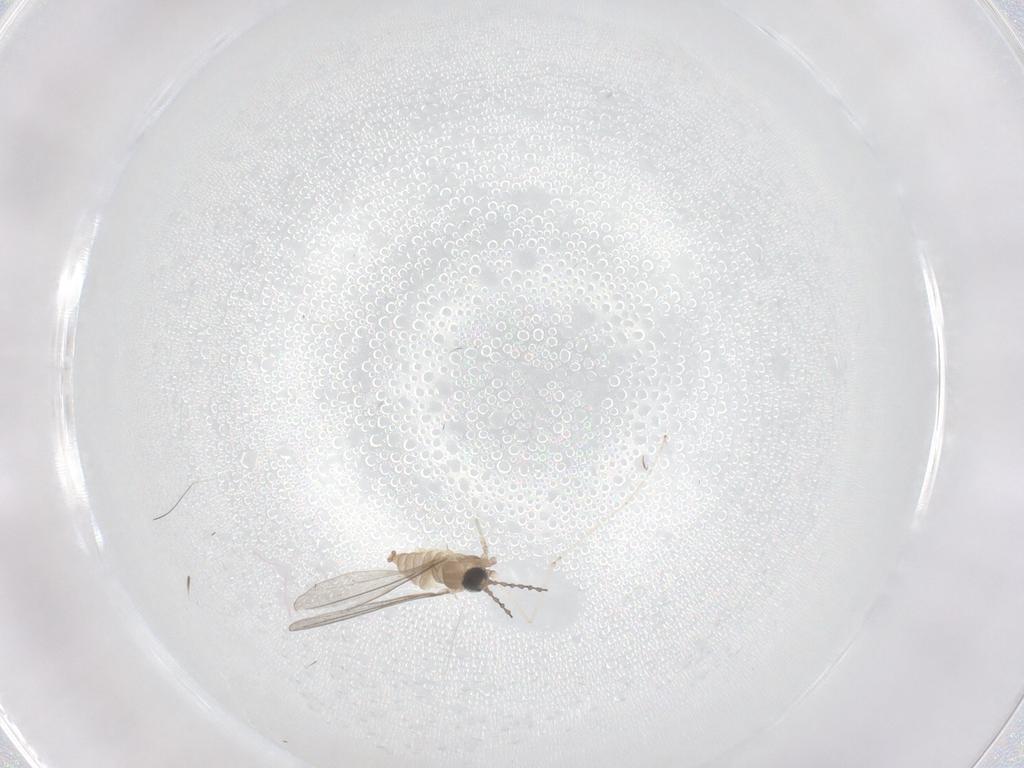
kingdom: Animalia
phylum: Arthropoda
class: Insecta
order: Diptera
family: Cecidomyiidae
